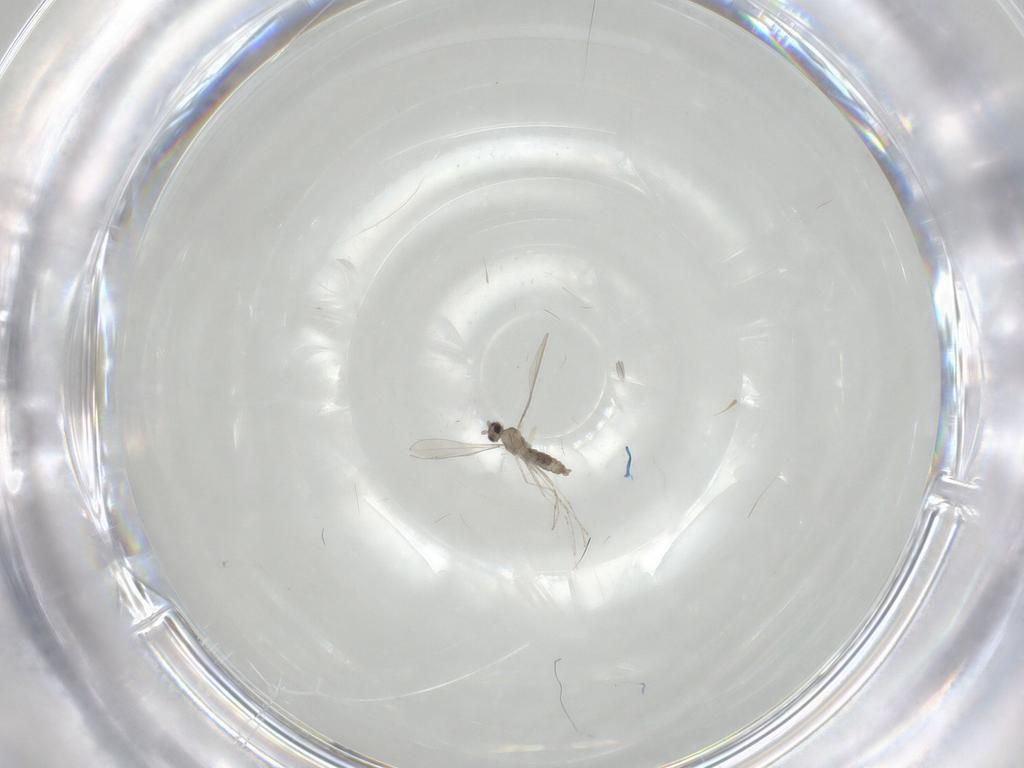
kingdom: Animalia
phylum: Arthropoda
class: Insecta
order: Diptera
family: Cecidomyiidae
